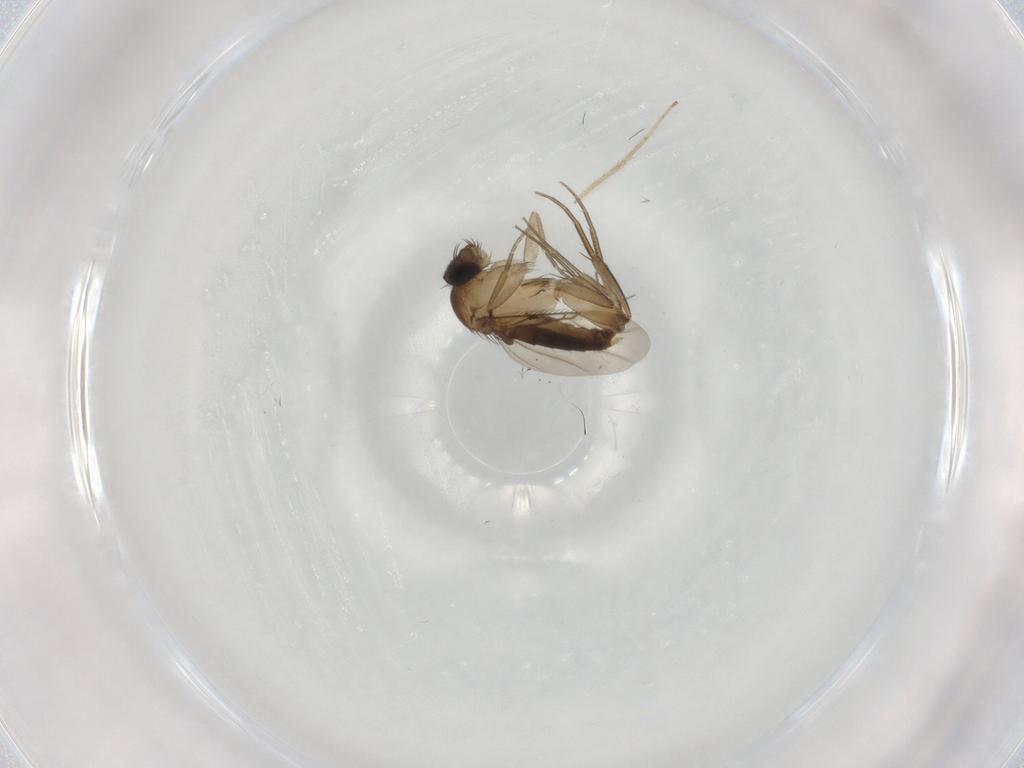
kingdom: Animalia
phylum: Arthropoda
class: Insecta
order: Diptera
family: Phoridae
